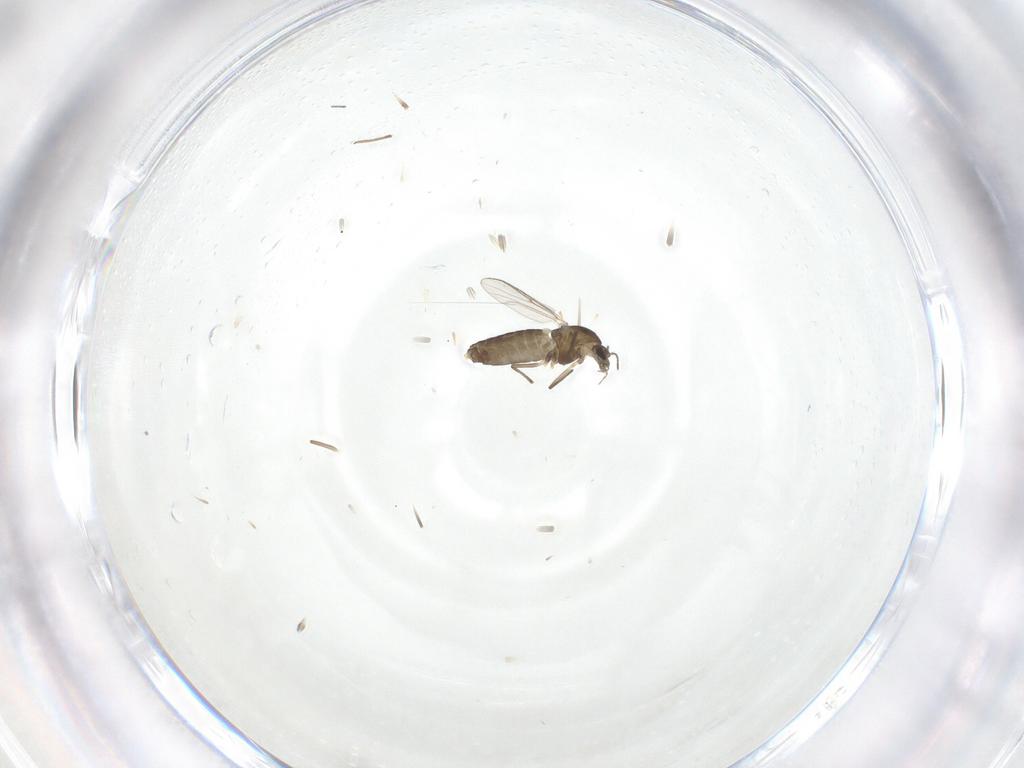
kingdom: Animalia
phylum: Arthropoda
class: Insecta
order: Diptera
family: Chironomidae
